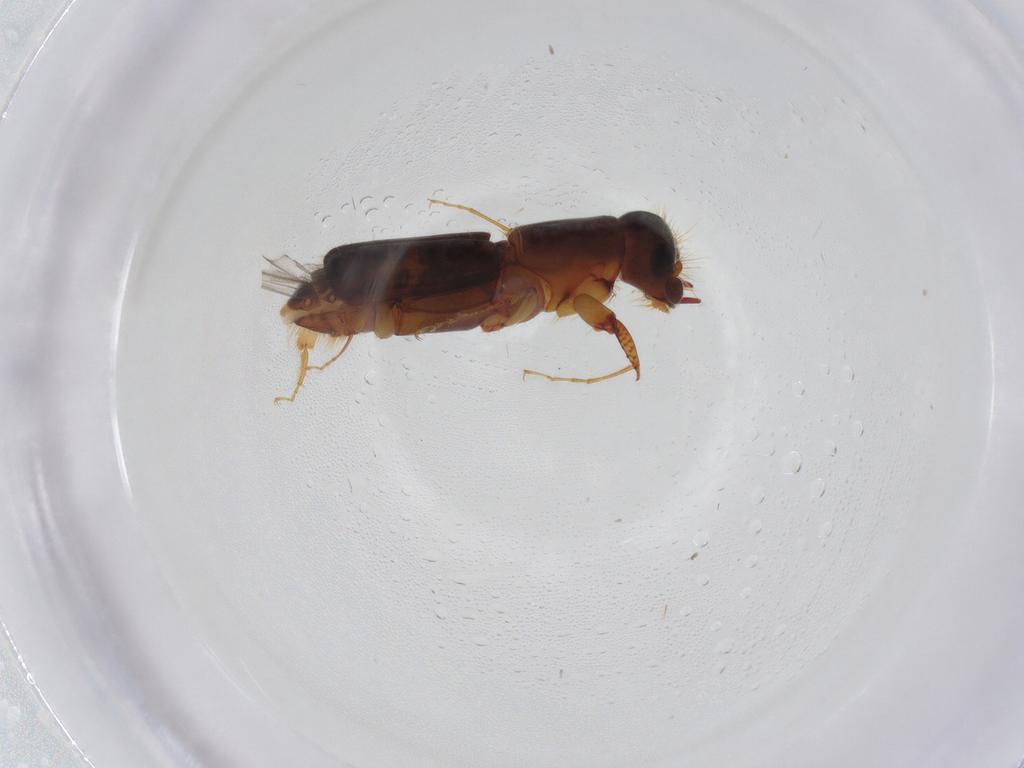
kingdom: Animalia
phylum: Arthropoda
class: Insecta
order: Coleoptera
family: Curculionidae
